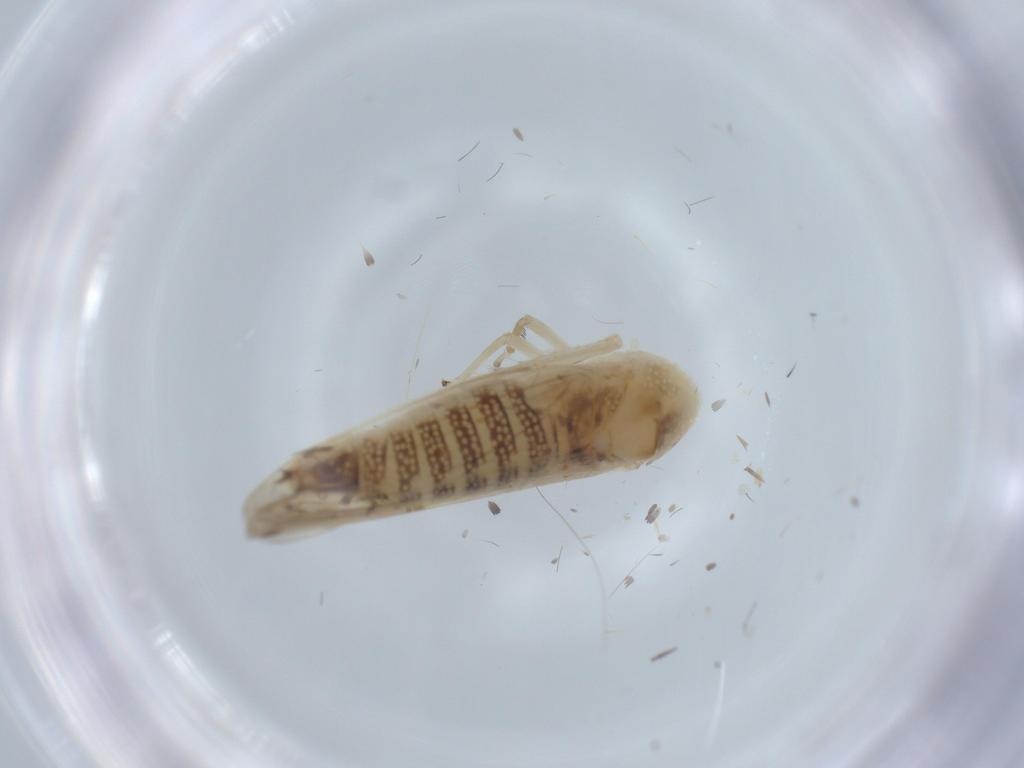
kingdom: Animalia
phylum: Arthropoda
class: Insecta
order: Hemiptera
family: Cicadellidae
